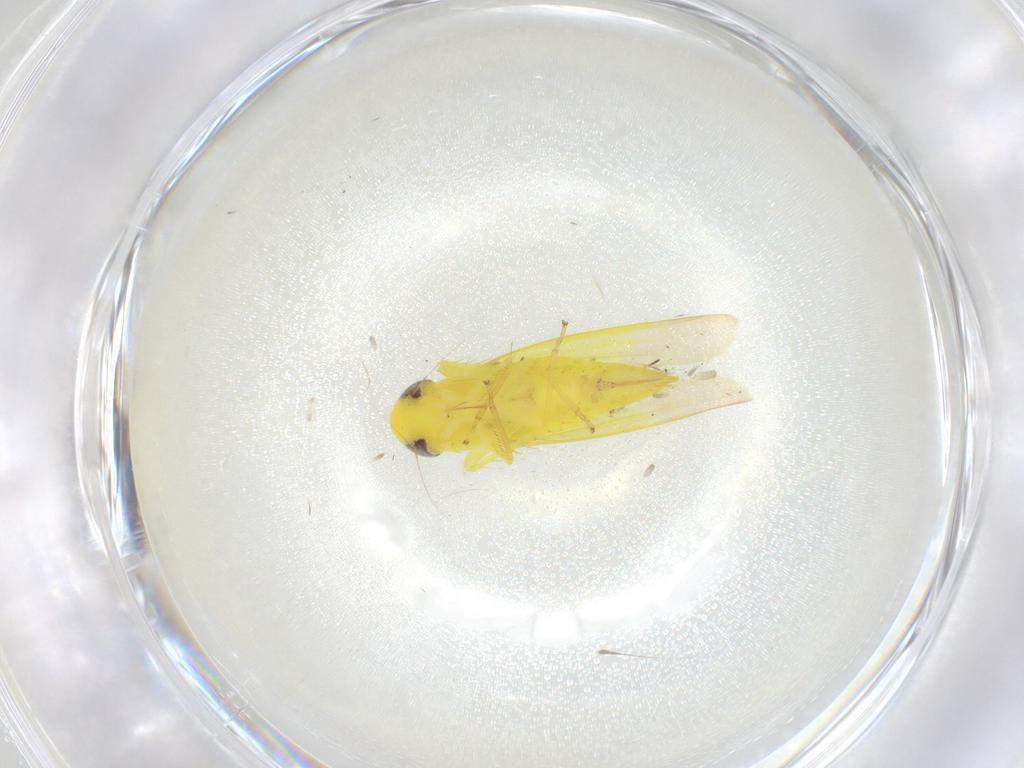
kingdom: Animalia
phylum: Arthropoda
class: Insecta
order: Hemiptera
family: Cicadellidae
